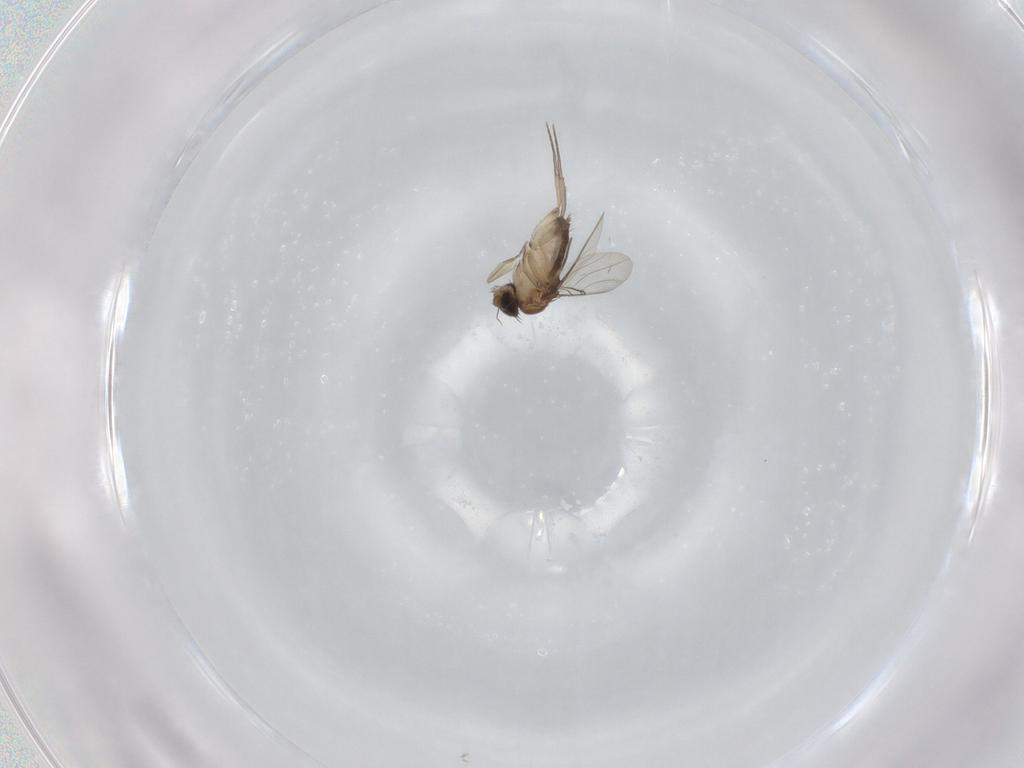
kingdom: Animalia
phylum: Arthropoda
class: Insecta
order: Diptera
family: Phoridae
